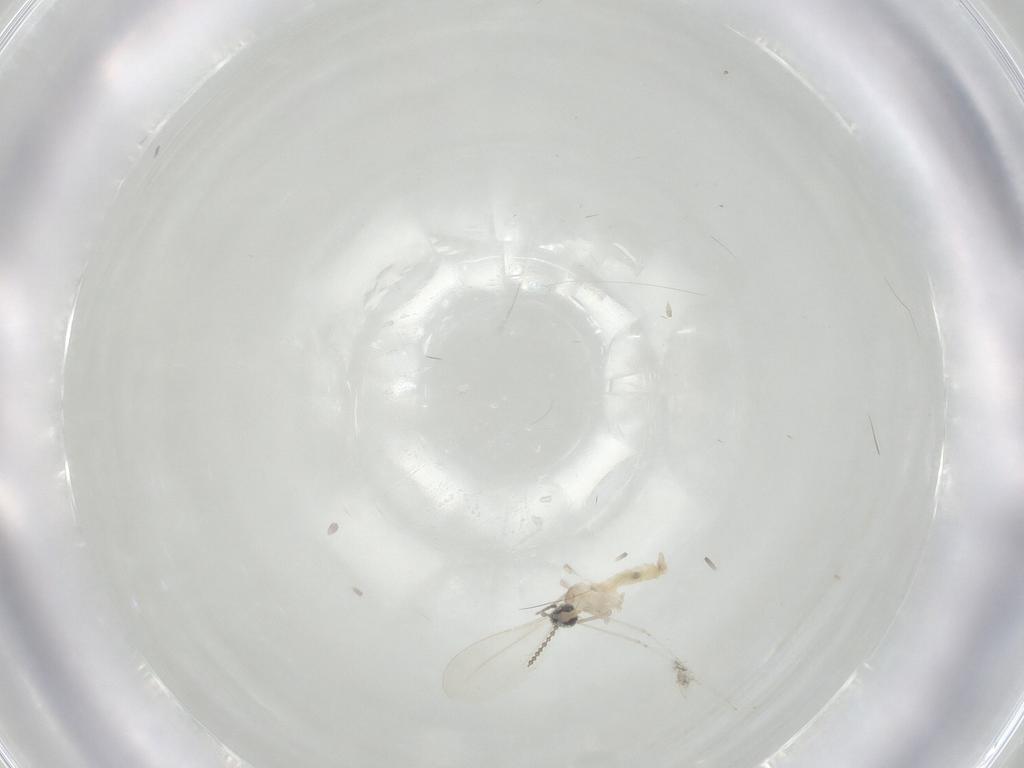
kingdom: Animalia
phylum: Arthropoda
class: Insecta
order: Diptera
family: Cecidomyiidae
